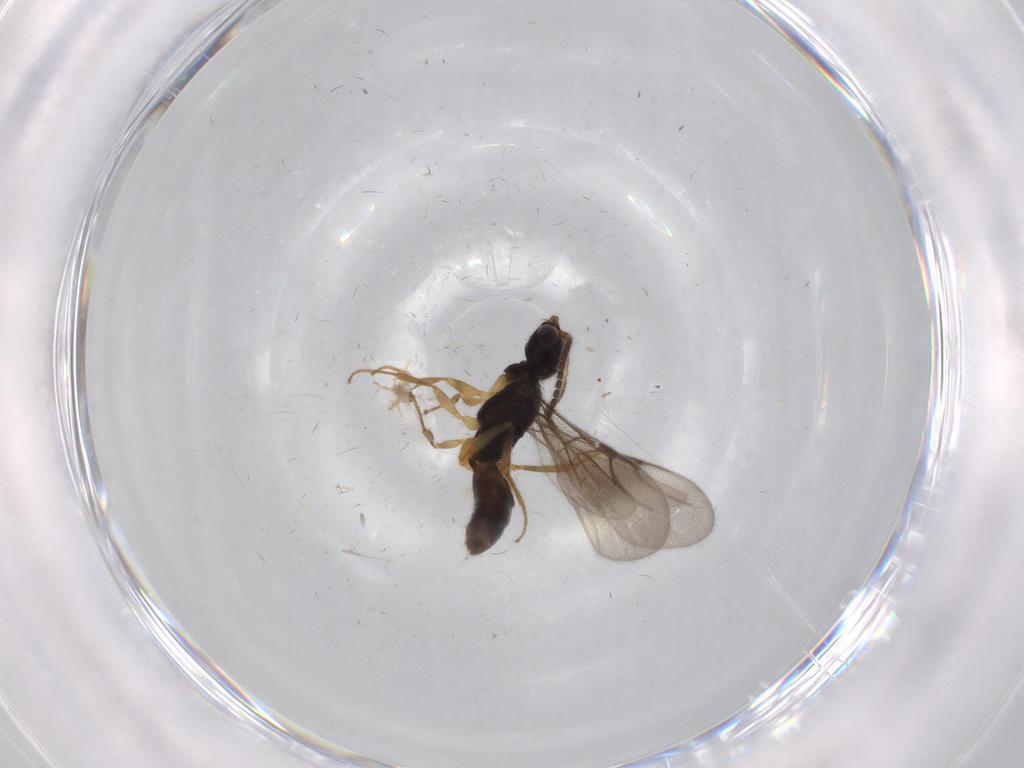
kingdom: Animalia
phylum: Arthropoda
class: Insecta
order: Hymenoptera
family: Bethylidae
